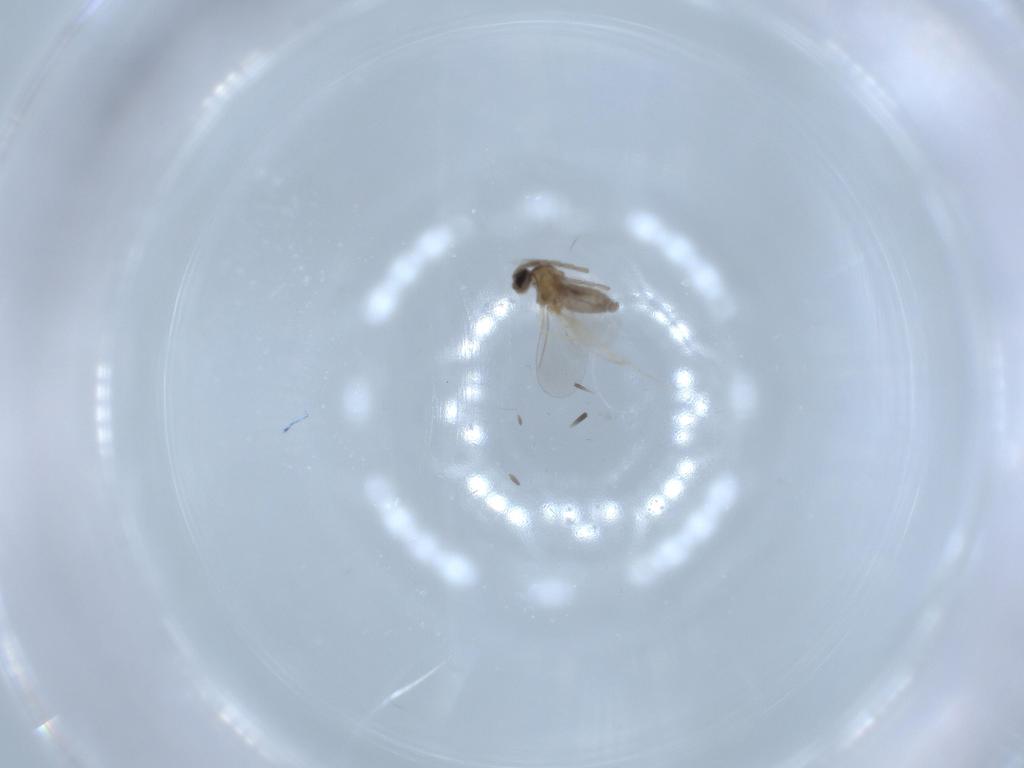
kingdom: Animalia
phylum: Arthropoda
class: Insecta
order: Diptera
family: Cecidomyiidae
